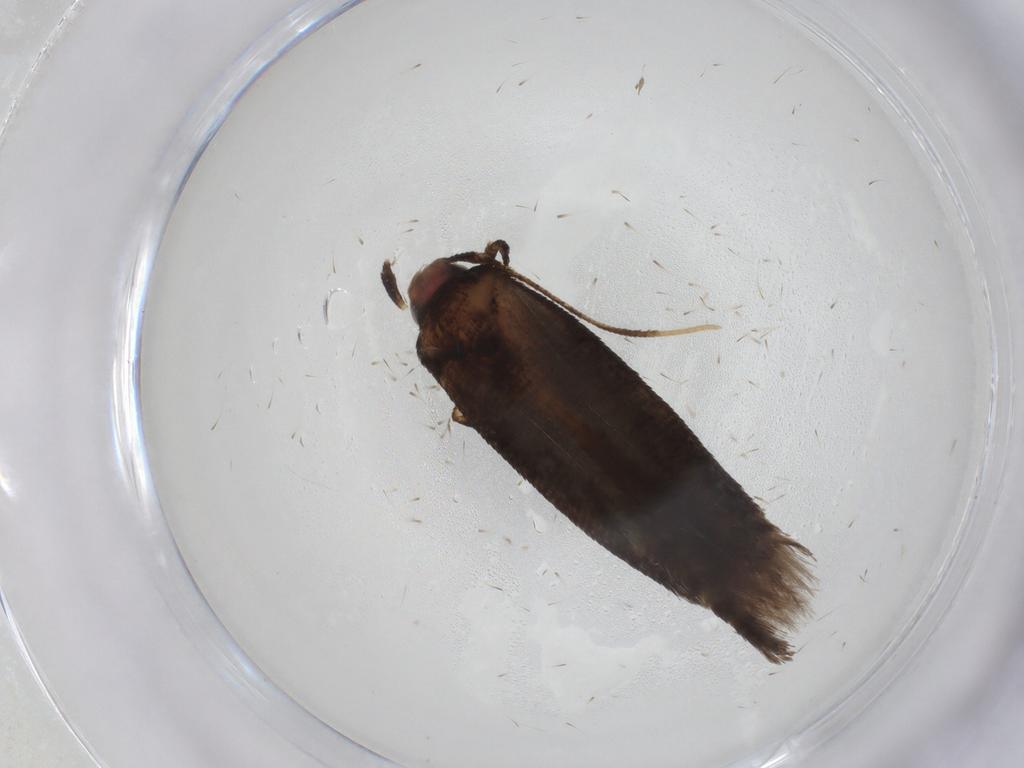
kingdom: Animalia
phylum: Arthropoda
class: Insecta
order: Lepidoptera
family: Cosmopterigidae
